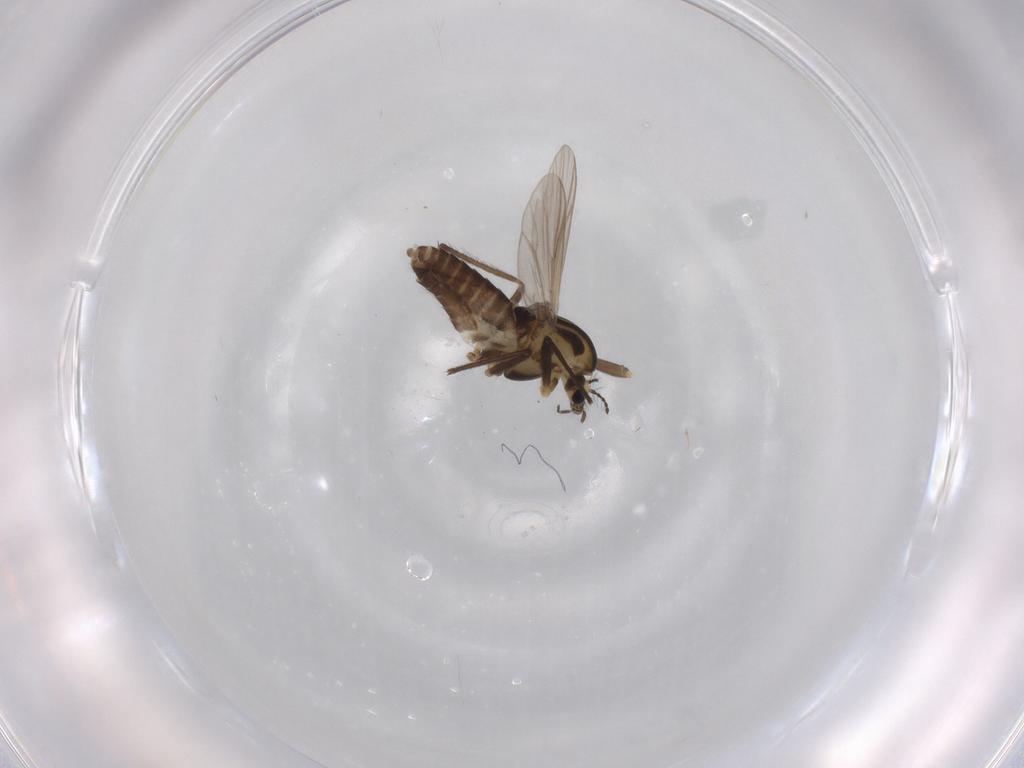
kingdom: Animalia
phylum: Arthropoda
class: Insecta
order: Diptera
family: Chironomidae
